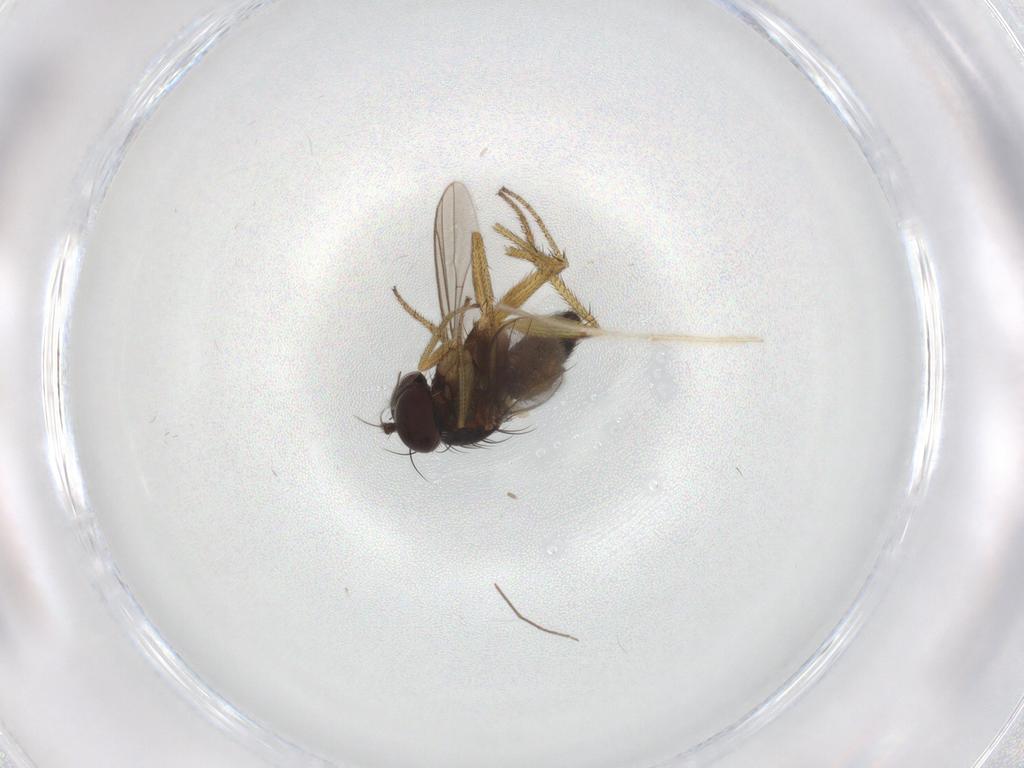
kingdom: Animalia
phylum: Arthropoda
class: Insecta
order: Diptera
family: Chironomidae
